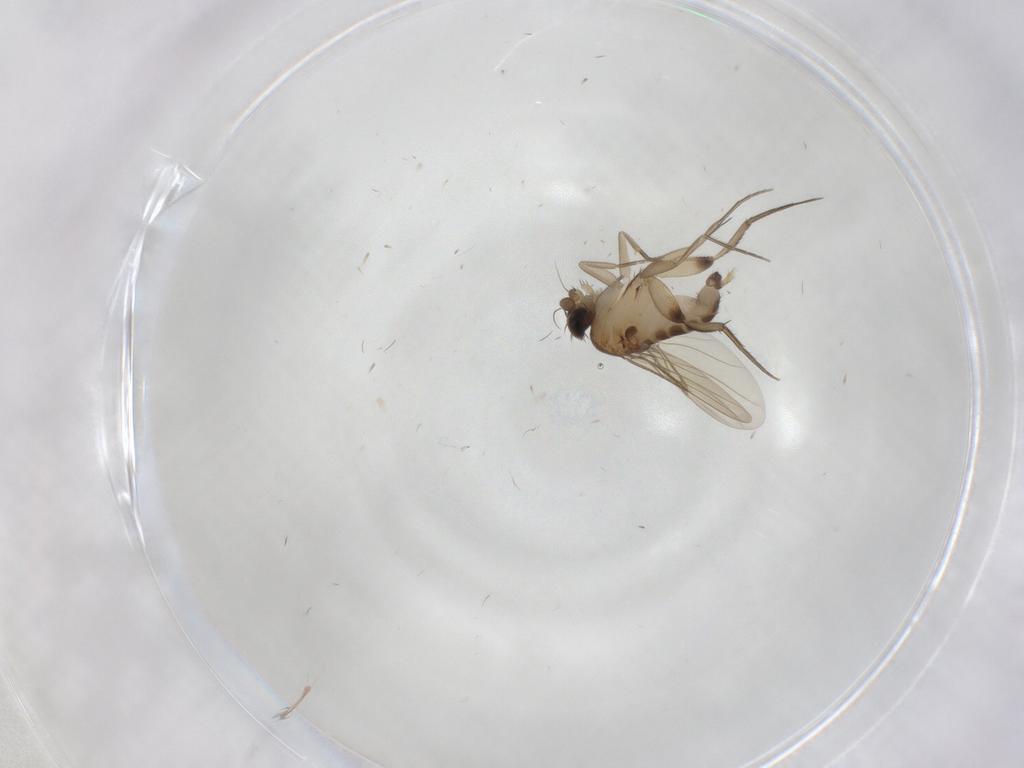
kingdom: Animalia
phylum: Arthropoda
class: Insecta
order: Diptera
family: Phoridae
